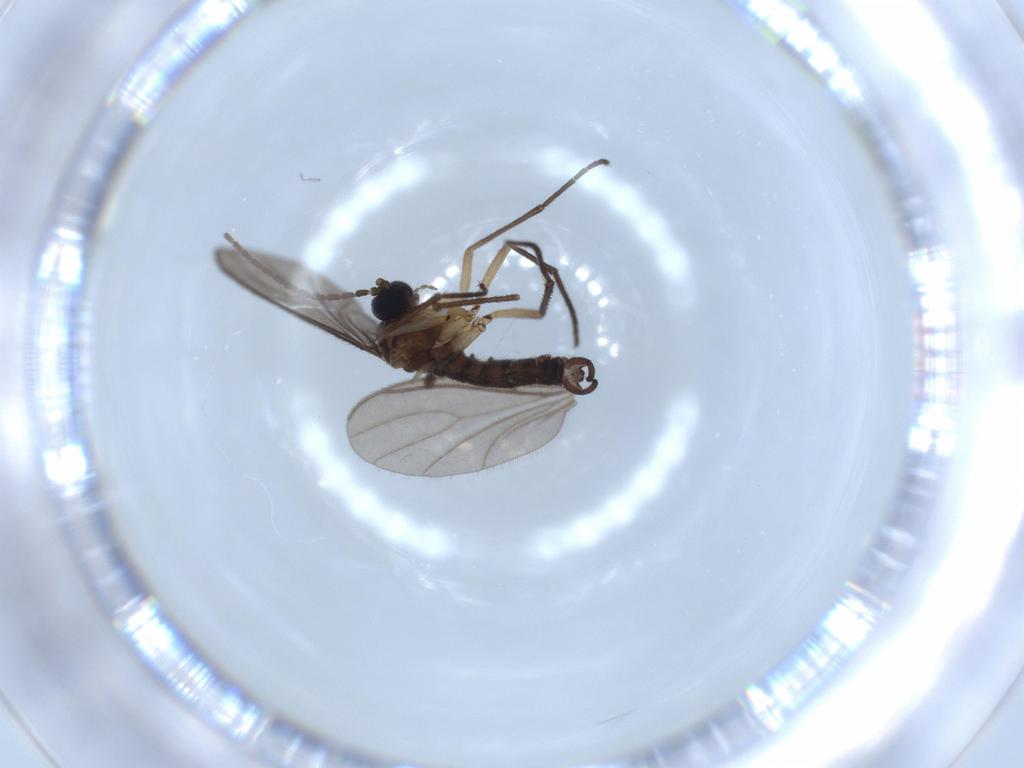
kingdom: Animalia
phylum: Arthropoda
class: Insecta
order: Diptera
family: Sciaridae
